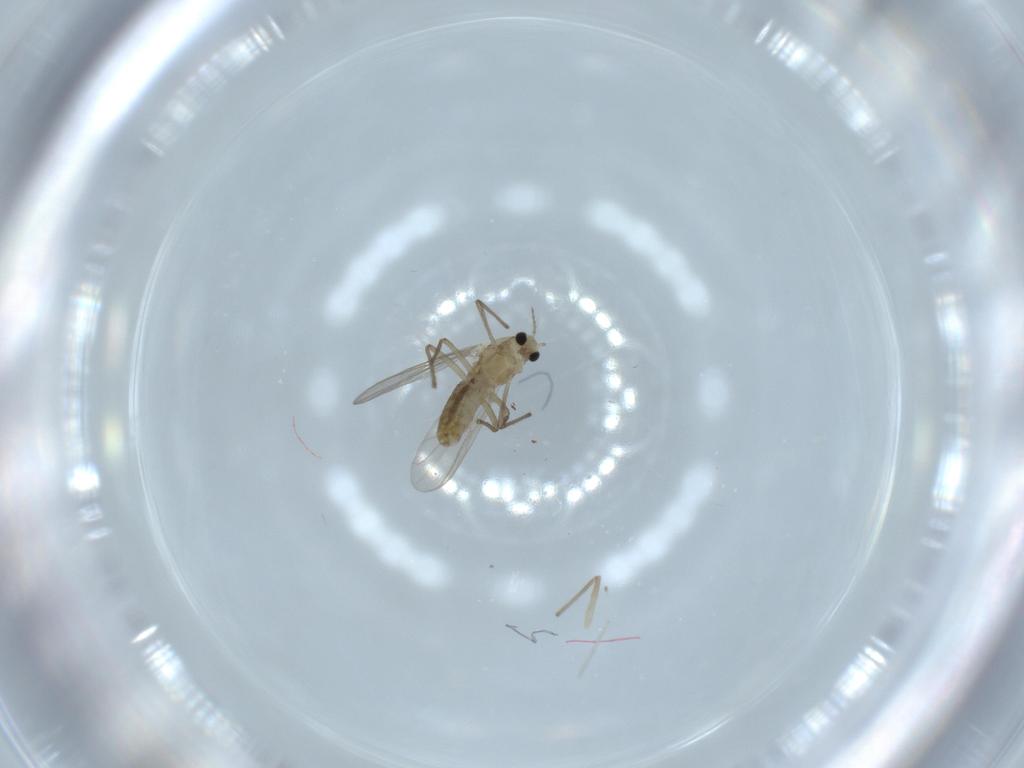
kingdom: Animalia
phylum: Arthropoda
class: Insecta
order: Diptera
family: Chironomidae
